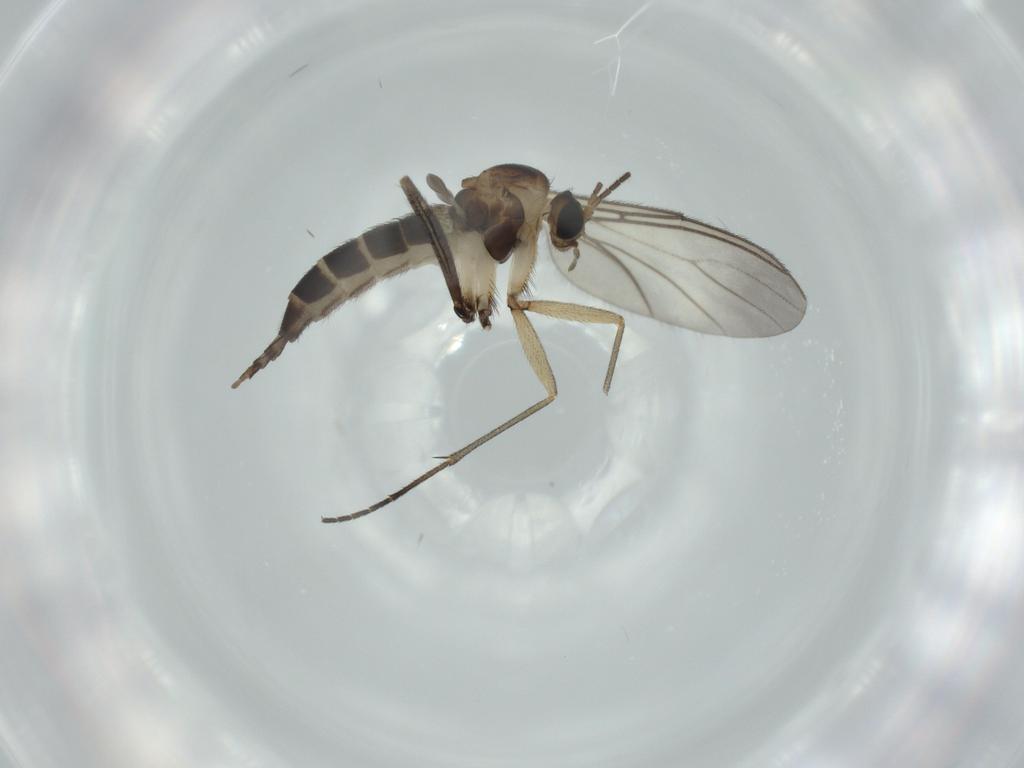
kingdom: Animalia
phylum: Arthropoda
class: Insecta
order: Diptera
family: Sciaridae
